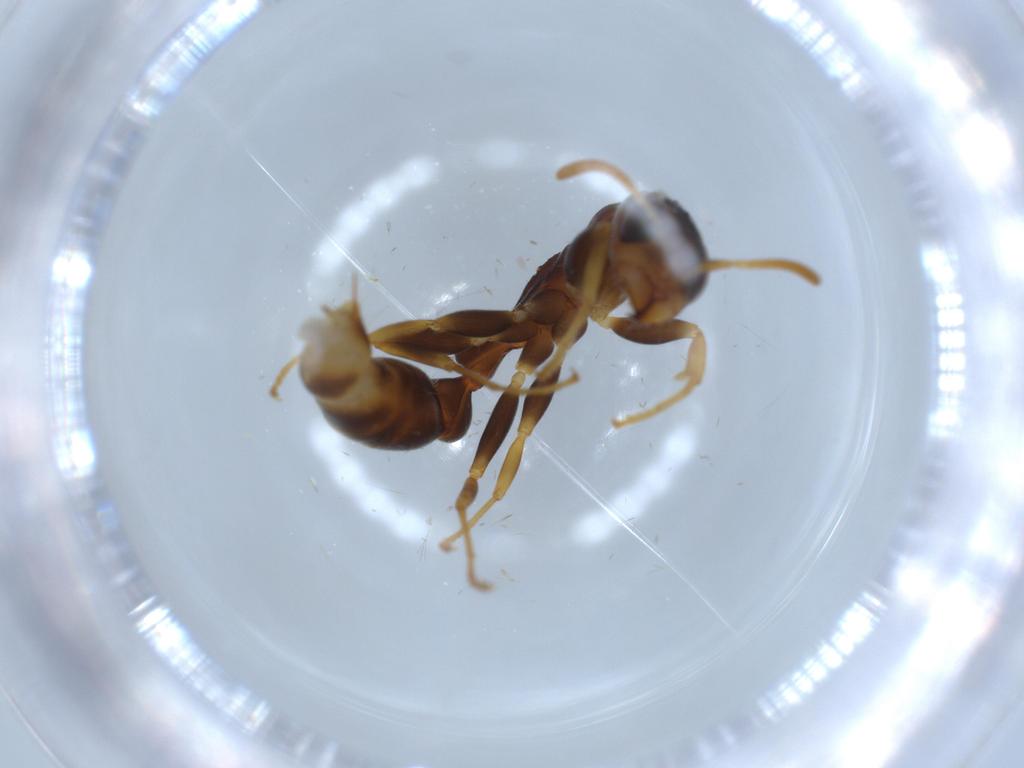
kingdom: Animalia
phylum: Arthropoda
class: Insecta
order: Hymenoptera
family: Formicidae
